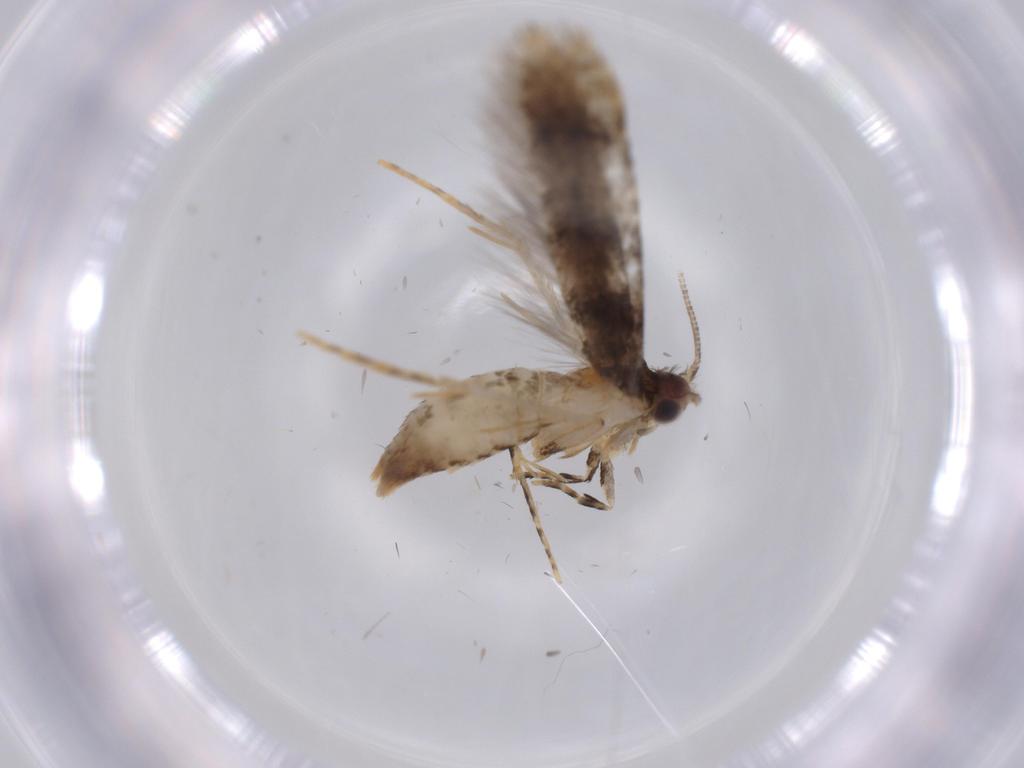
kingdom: Animalia
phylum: Arthropoda
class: Insecta
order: Lepidoptera
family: Tineidae
